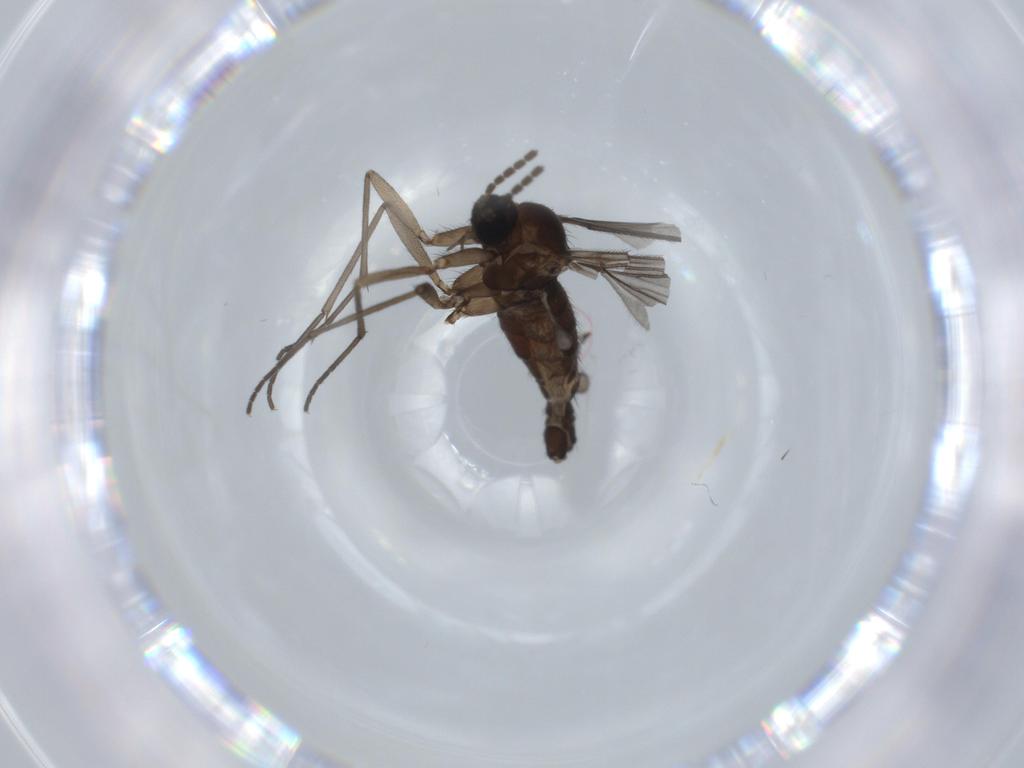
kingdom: Animalia
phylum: Arthropoda
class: Insecta
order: Diptera
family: Sciaridae
